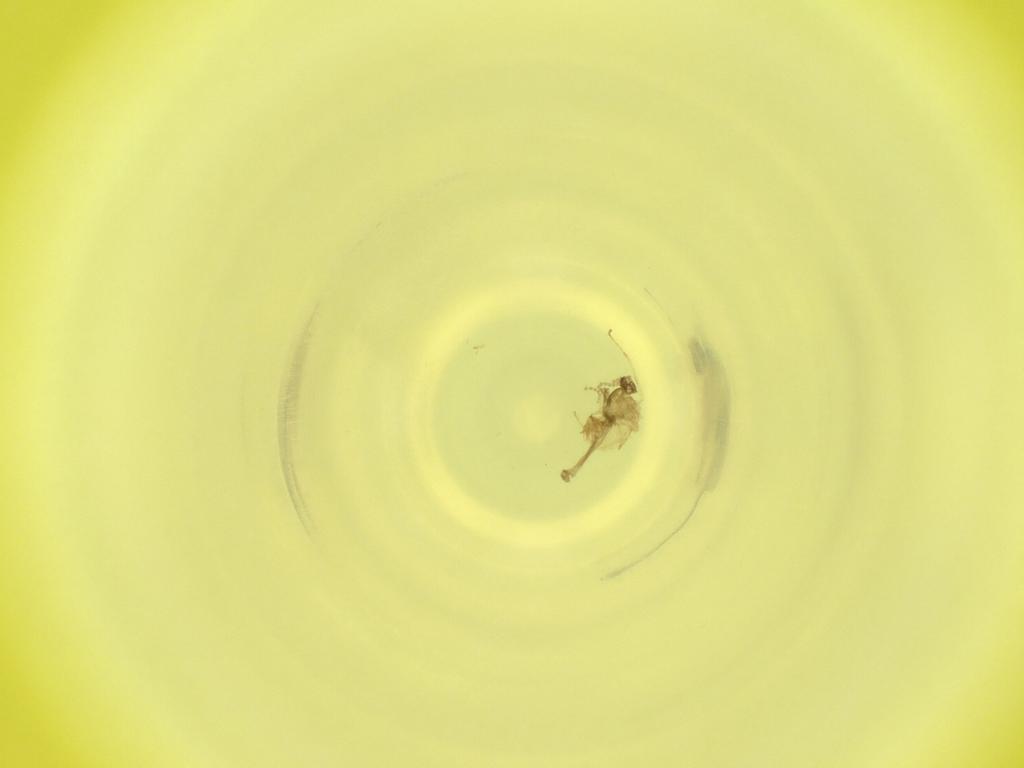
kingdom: Animalia
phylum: Arthropoda
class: Insecta
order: Diptera
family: Cecidomyiidae
